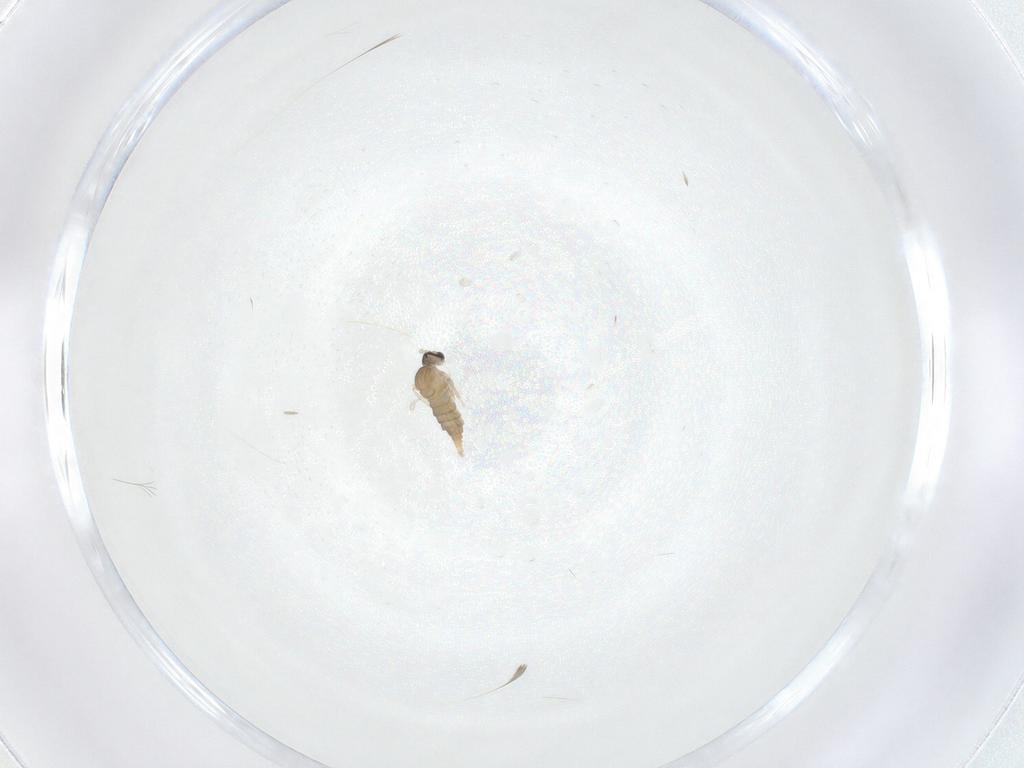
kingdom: Animalia
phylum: Arthropoda
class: Insecta
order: Diptera
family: Cecidomyiidae
